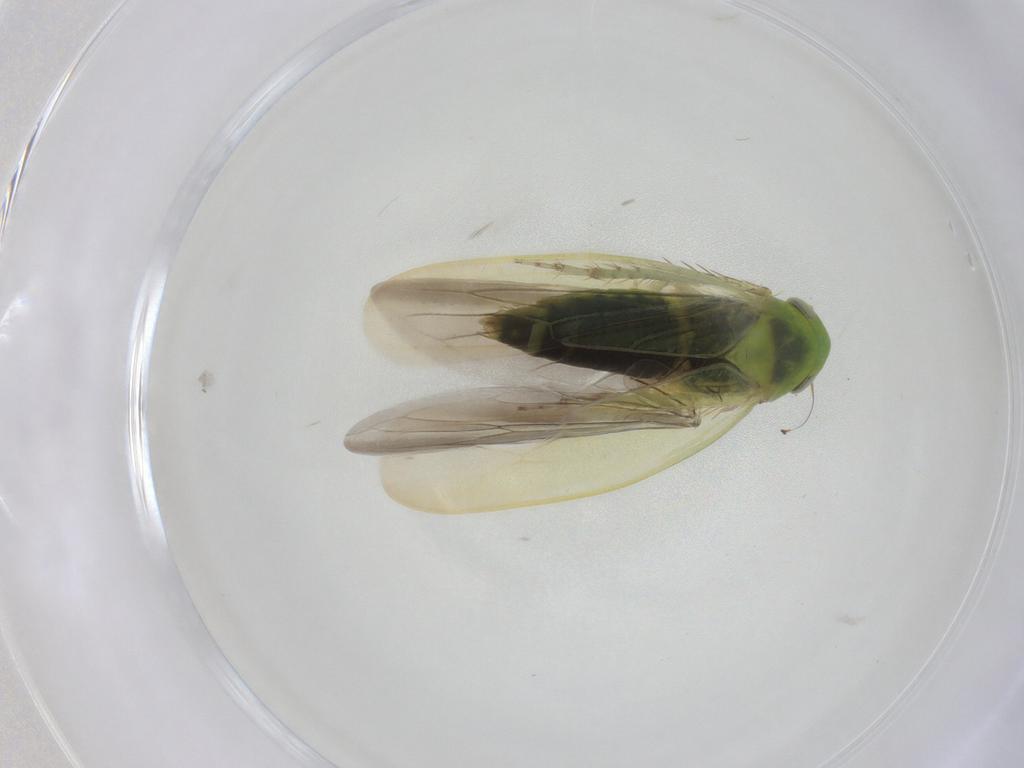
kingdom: Animalia
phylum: Arthropoda
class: Insecta
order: Hemiptera
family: Cicadellidae
